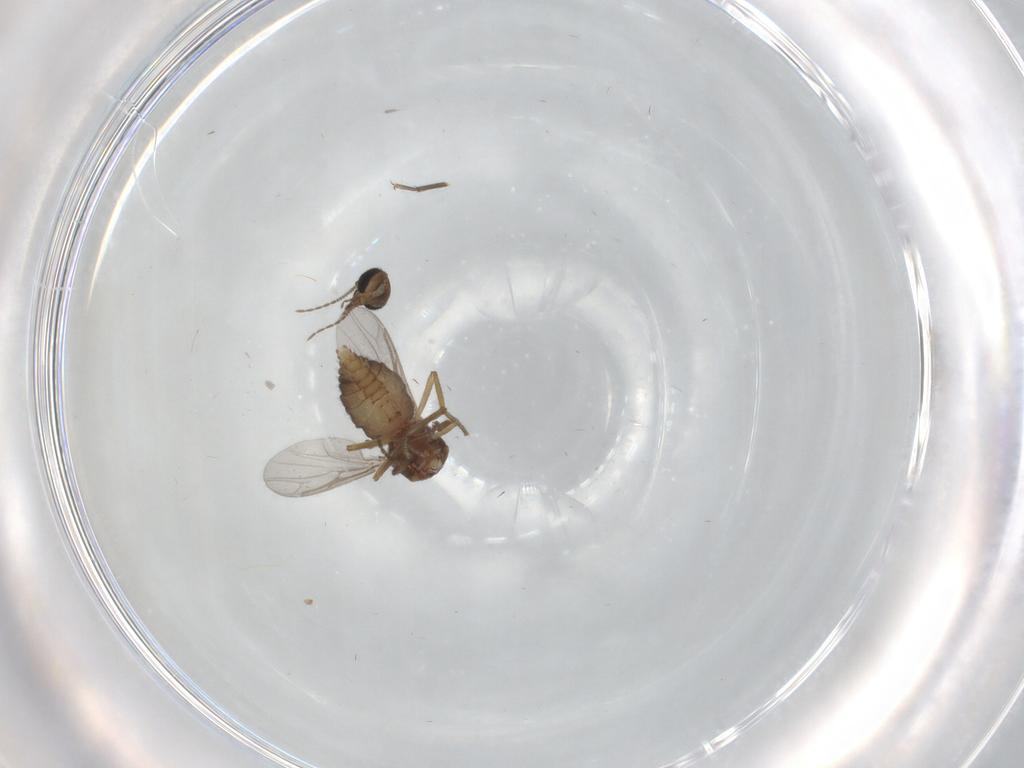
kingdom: Animalia
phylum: Arthropoda
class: Insecta
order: Diptera
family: Ceratopogonidae
